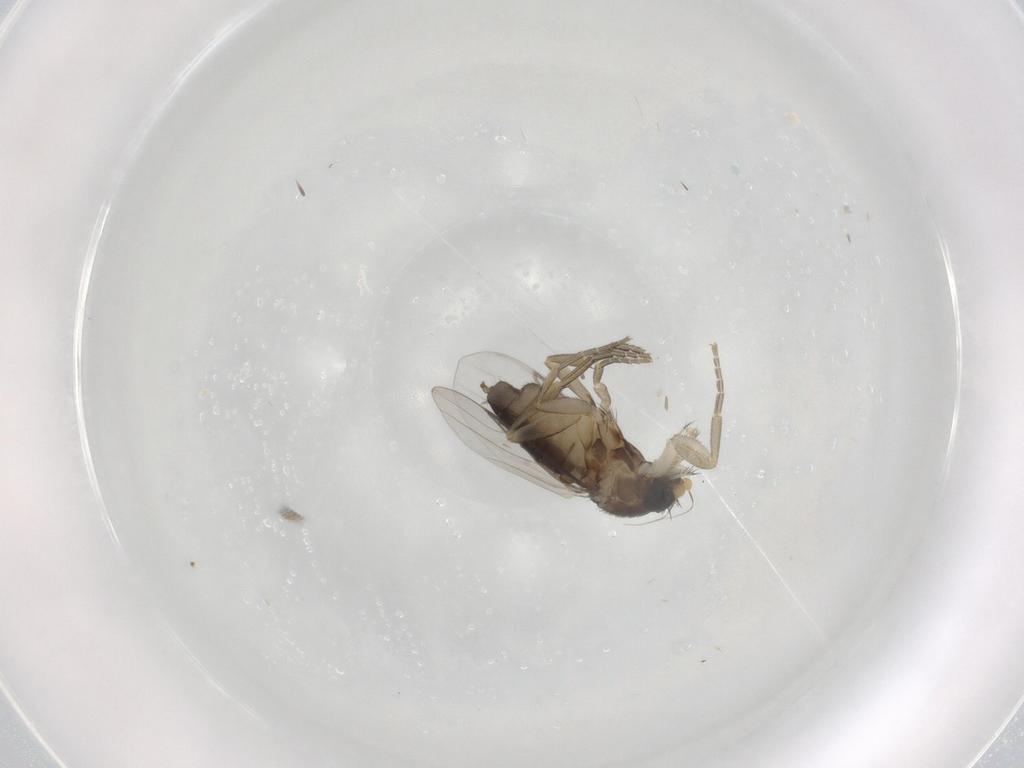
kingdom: Animalia
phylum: Arthropoda
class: Insecta
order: Diptera
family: Phoridae
